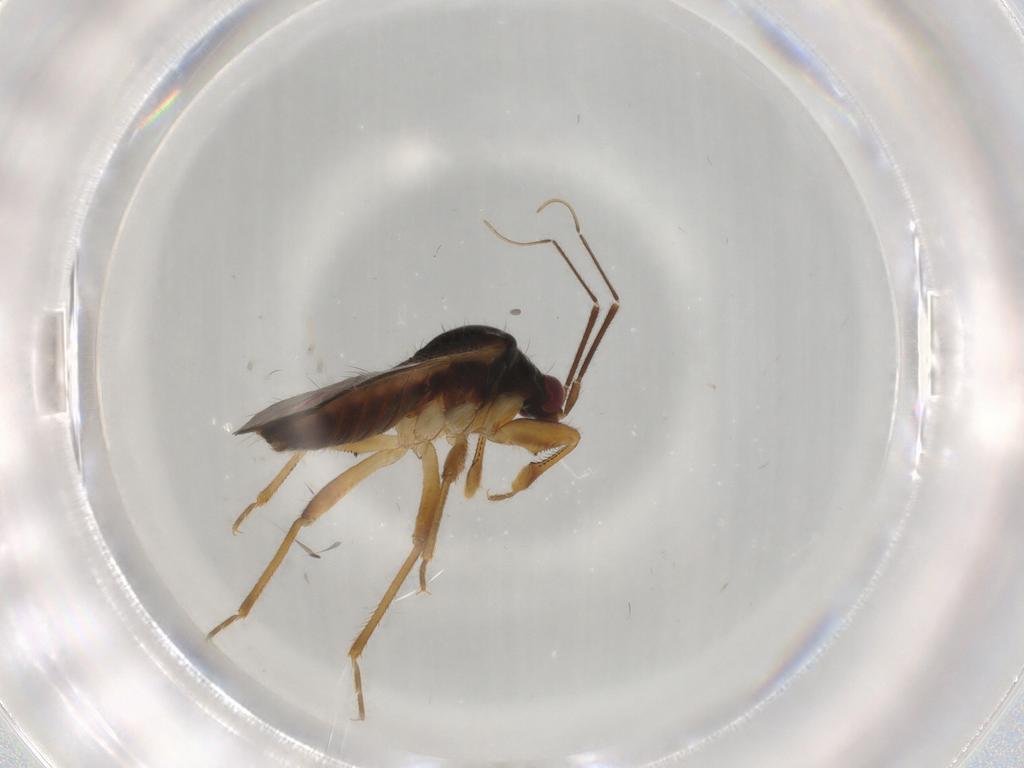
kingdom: Animalia
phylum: Arthropoda
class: Insecta
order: Hemiptera
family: Nabidae
